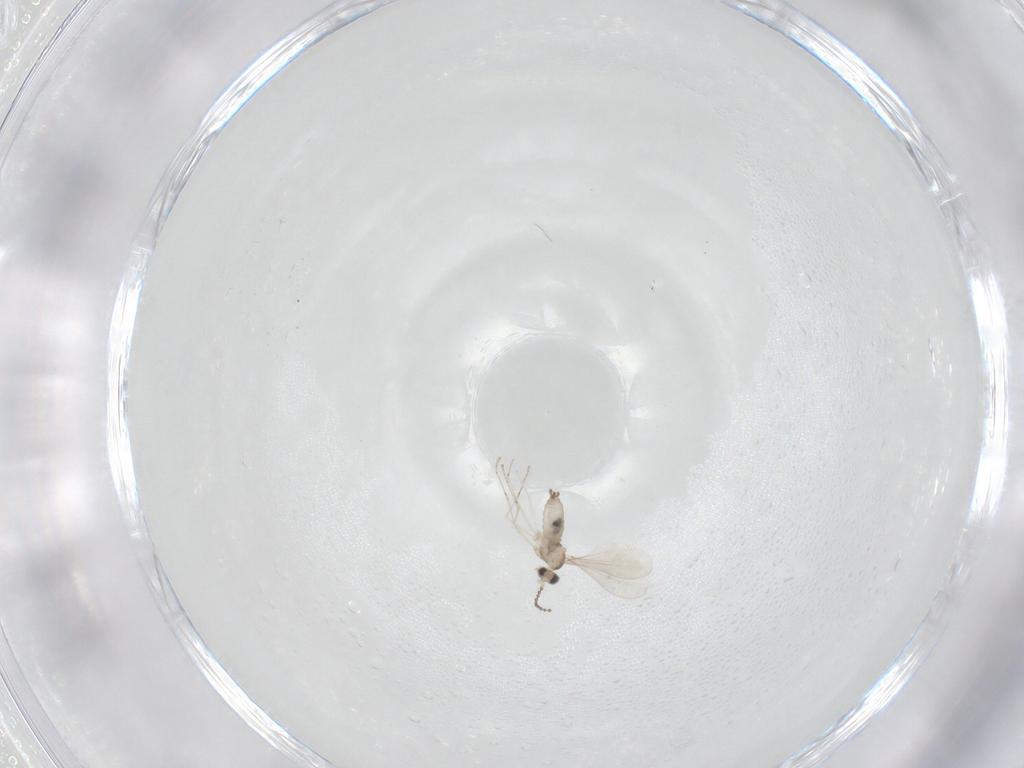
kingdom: Animalia
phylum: Arthropoda
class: Insecta
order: Diptera
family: Cecidomyiidae
